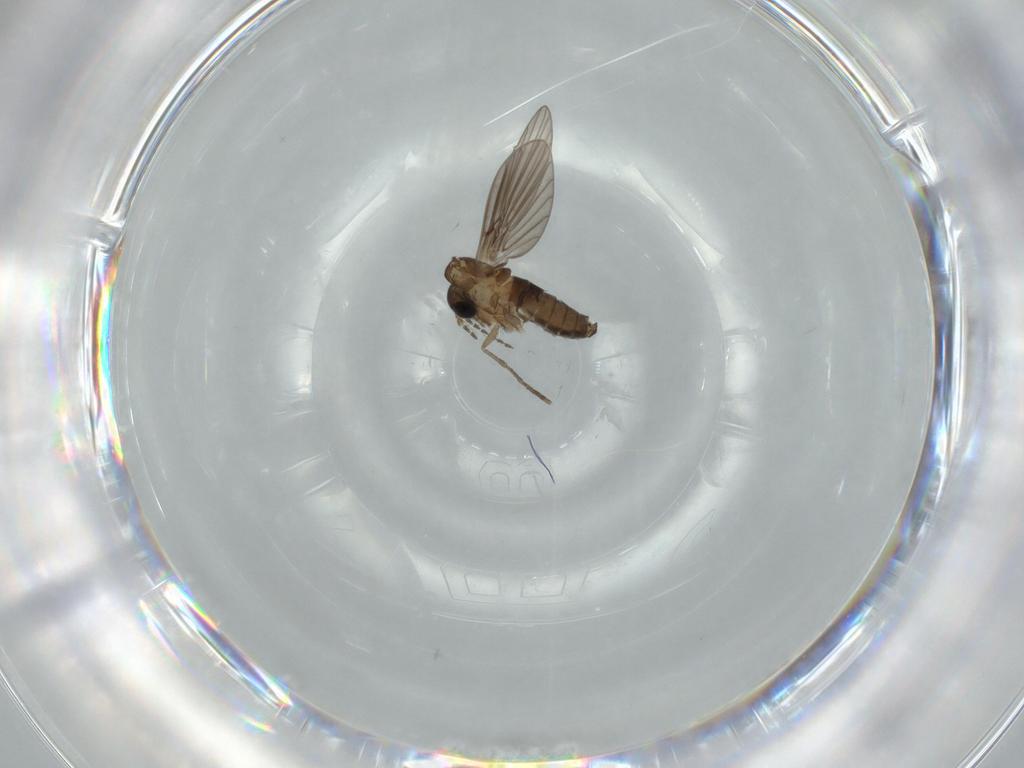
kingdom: Animalia
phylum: Arthropoda
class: Insecta
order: Diptera
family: Psychodidae
